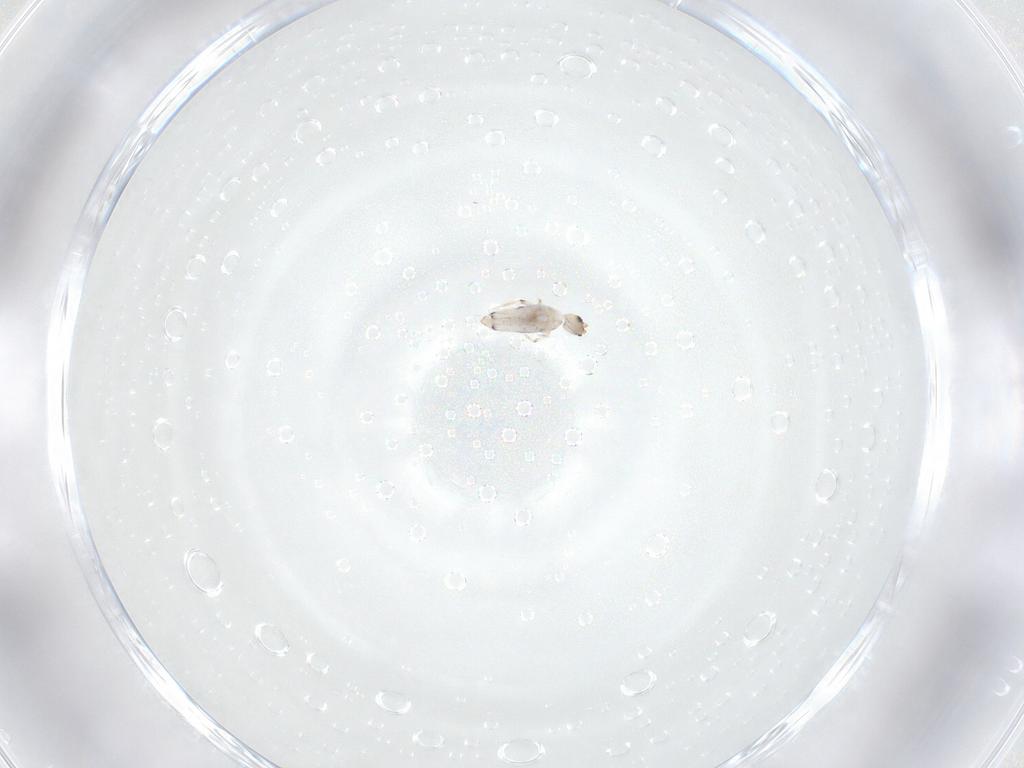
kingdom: Animalia
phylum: Arthropoda
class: Collembola
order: Entomobryomorpha
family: Entomobryidae
